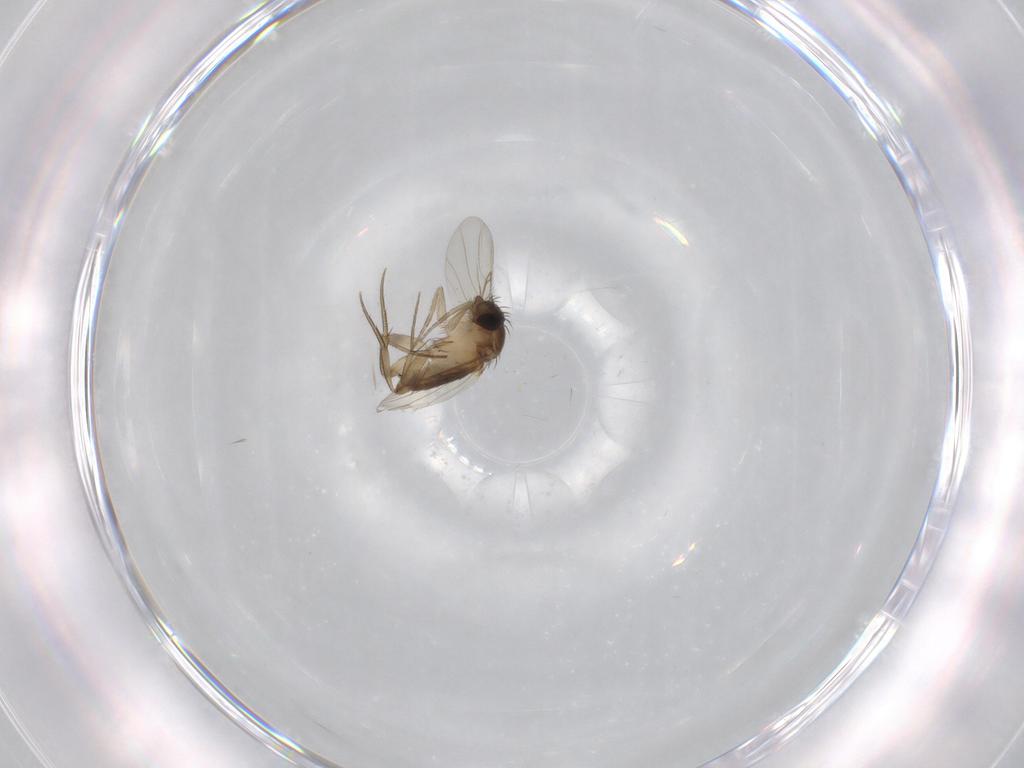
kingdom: Animalia
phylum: Arthropoda
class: Insecta
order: Diptera
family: Phoridae
